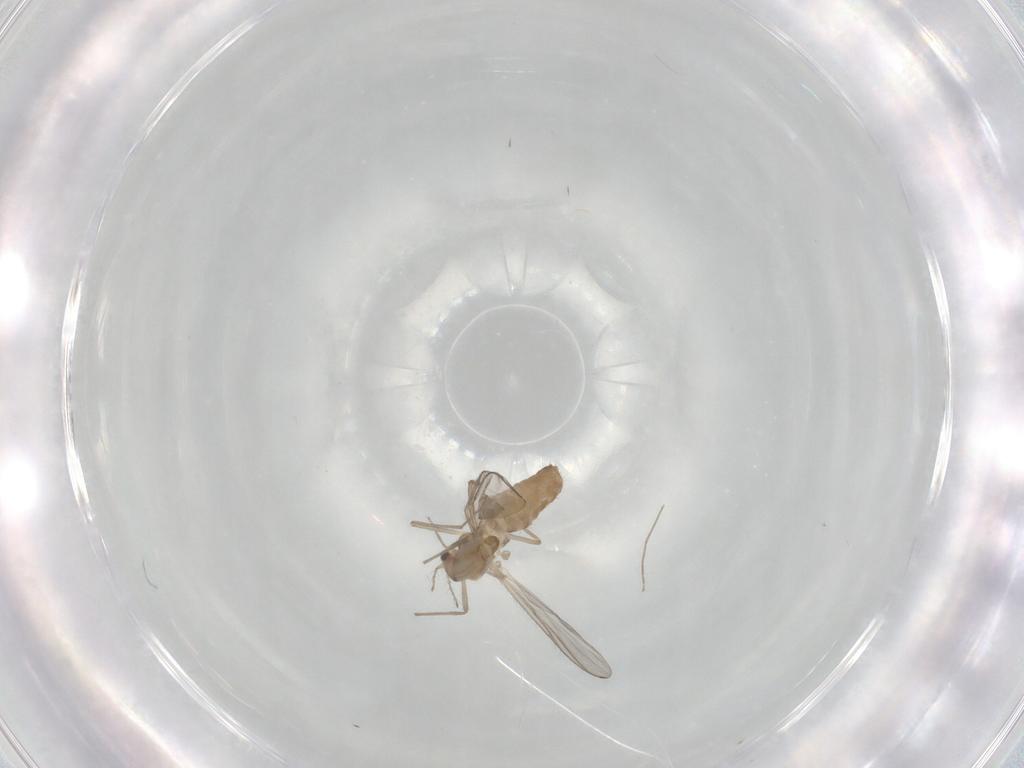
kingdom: Animalia
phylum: Arthropoda
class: Insecta
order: Diptera
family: Chironomidae
